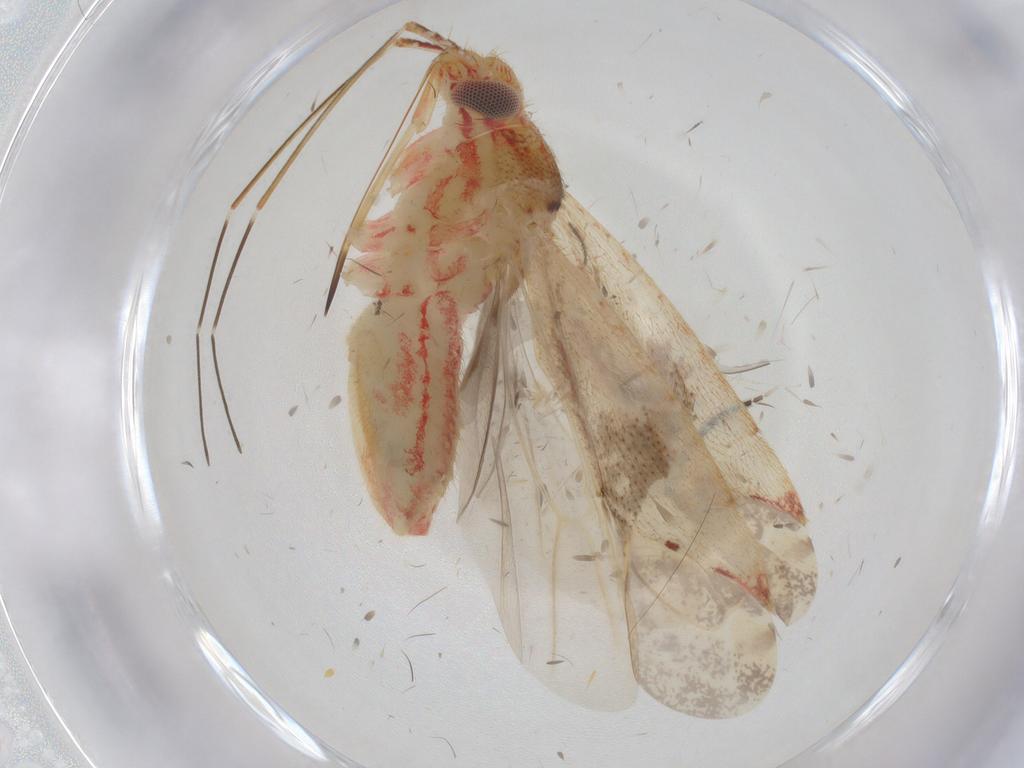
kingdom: Animalia
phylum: Arthropoda
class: Insecta
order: Hemiptera
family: Miridae
